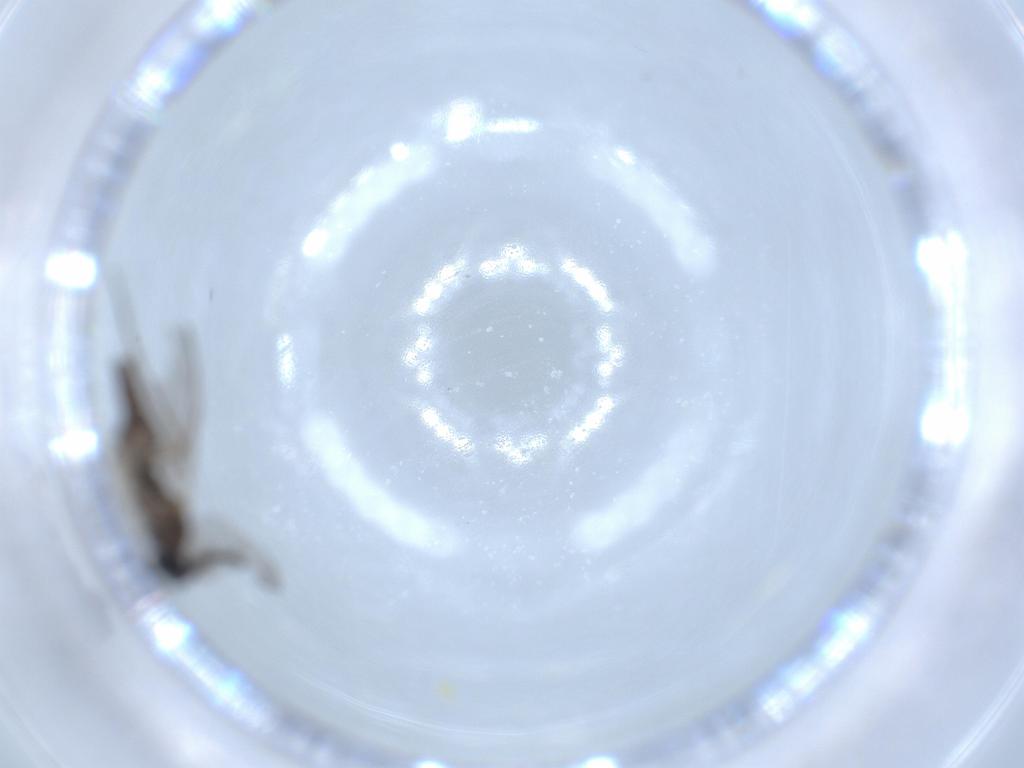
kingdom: Animalia
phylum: Arthropoda
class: Insecta
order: Diptera
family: Sciaridae
